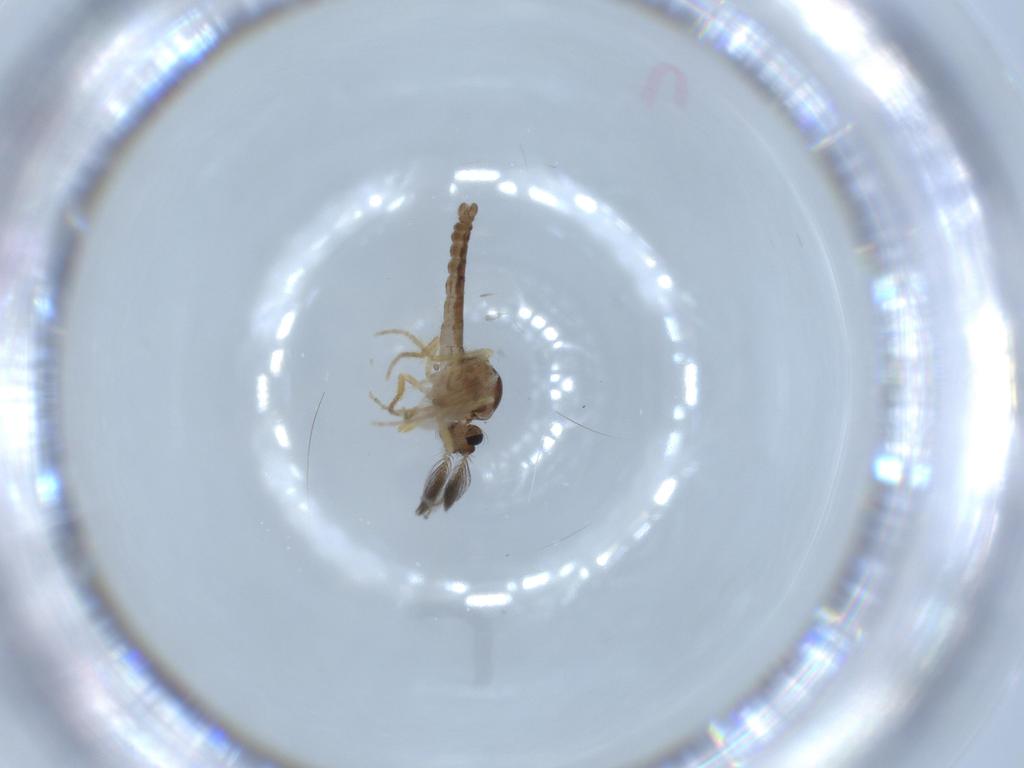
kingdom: Animalia
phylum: Arthropoda
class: Insecta
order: Diptera
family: Ceratopogonidae
